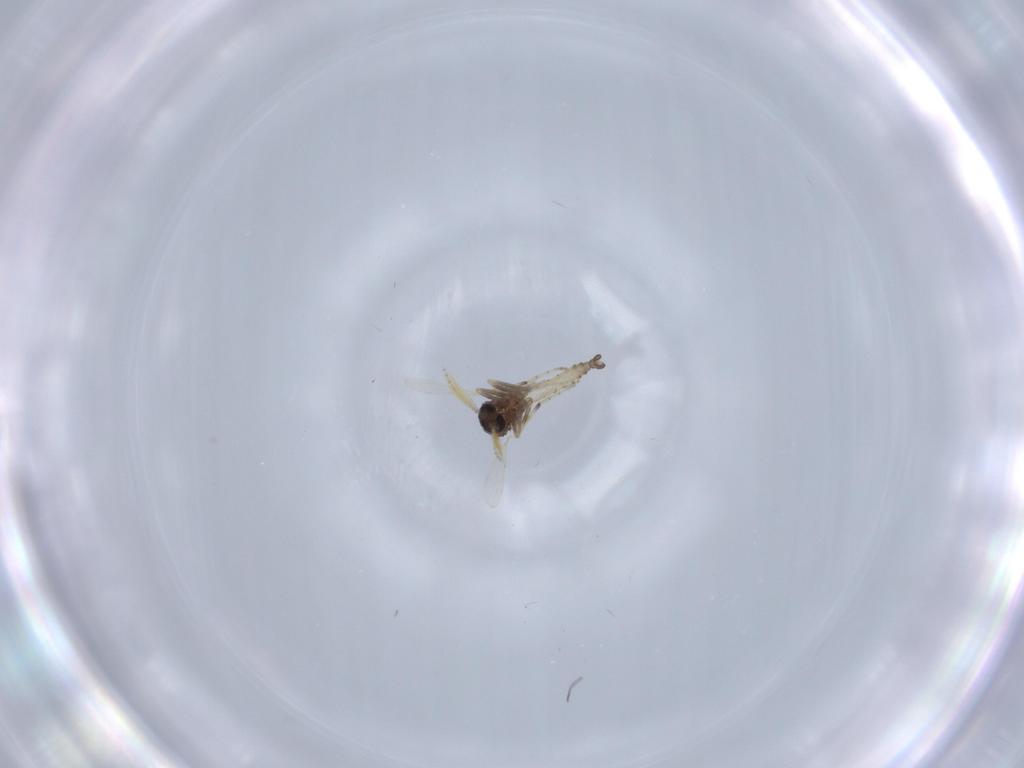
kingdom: Animalia
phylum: Arthropoda
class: Insecta
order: Diptera
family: Ceratopogonidae
